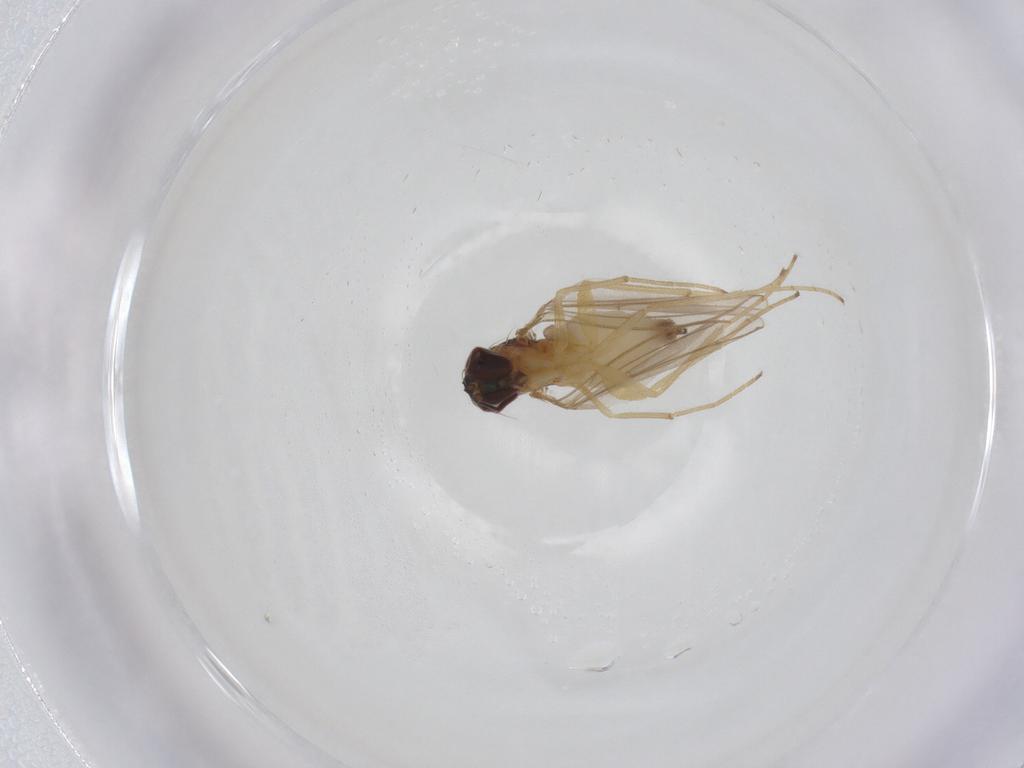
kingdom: Animalia
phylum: Arthropoda
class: Insecta
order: Diptera
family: Dolichopodidae
